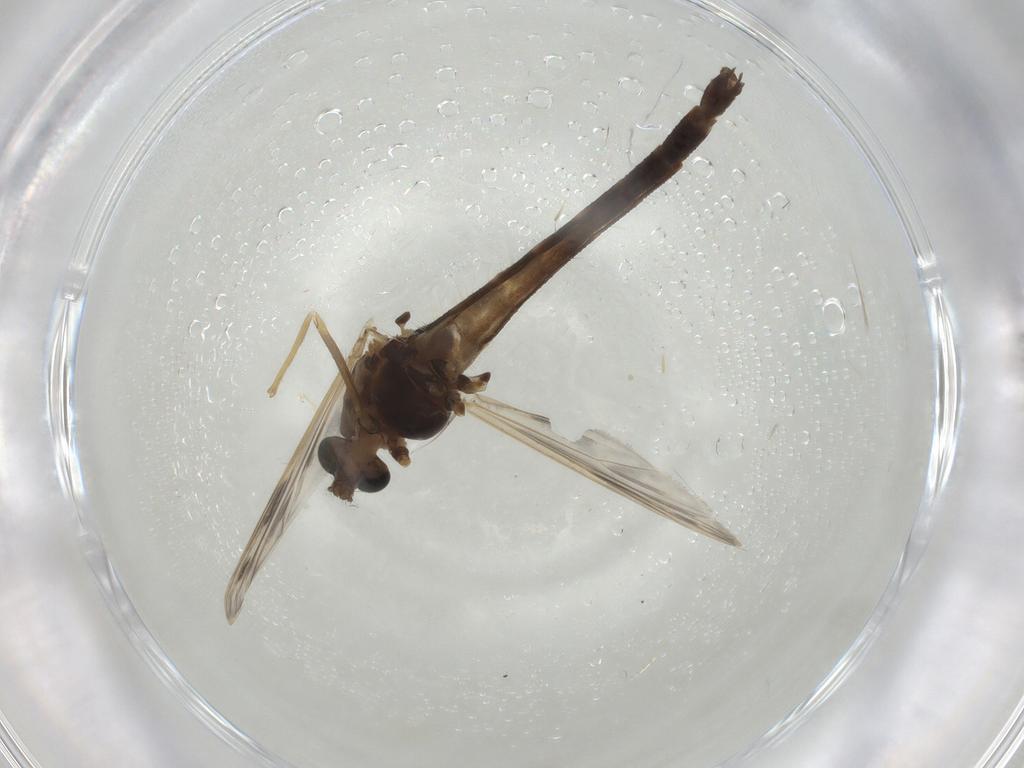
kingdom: Animalia
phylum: Arthropoda
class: Insecta
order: Diptera
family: Chironomidae
